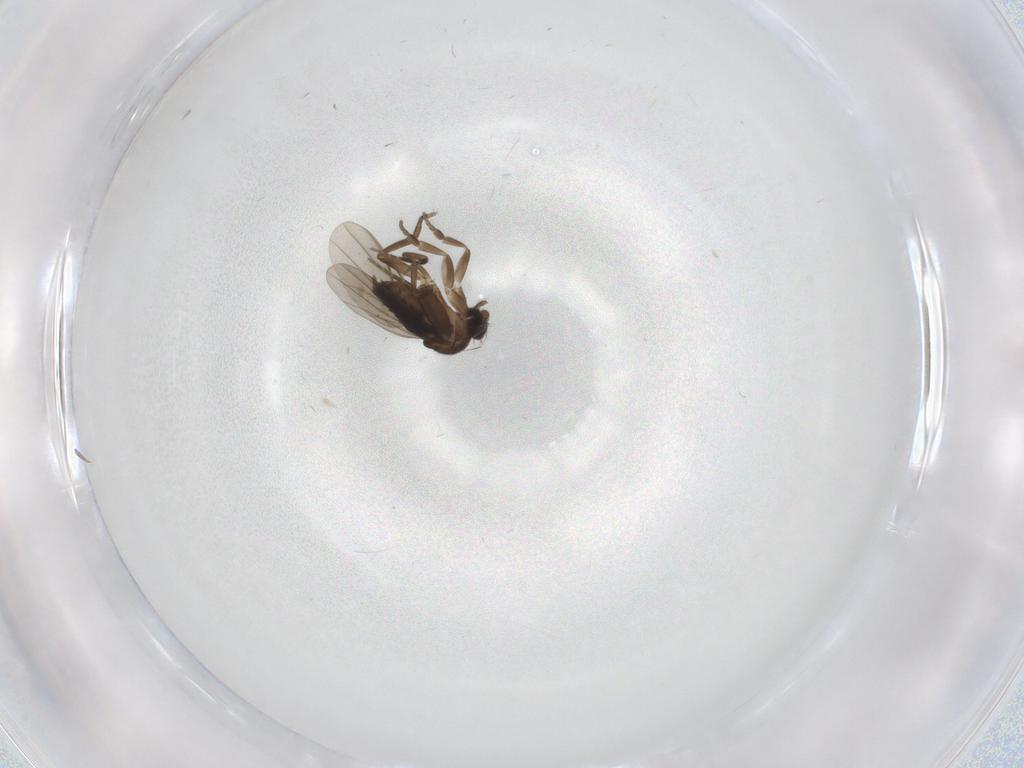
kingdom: Animalia
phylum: Arthropoda
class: Insecta
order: Diptera
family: Phoridae
